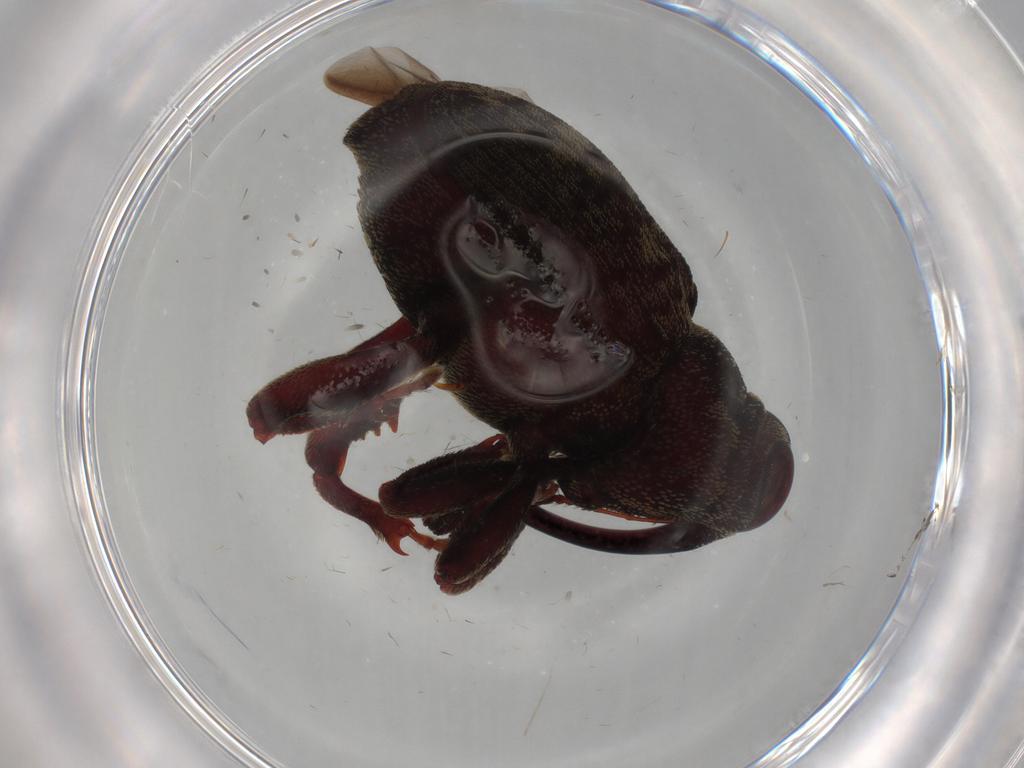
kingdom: Animalia
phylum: Arthropoda
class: Insecta
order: Coleoptera
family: Curculionidae
